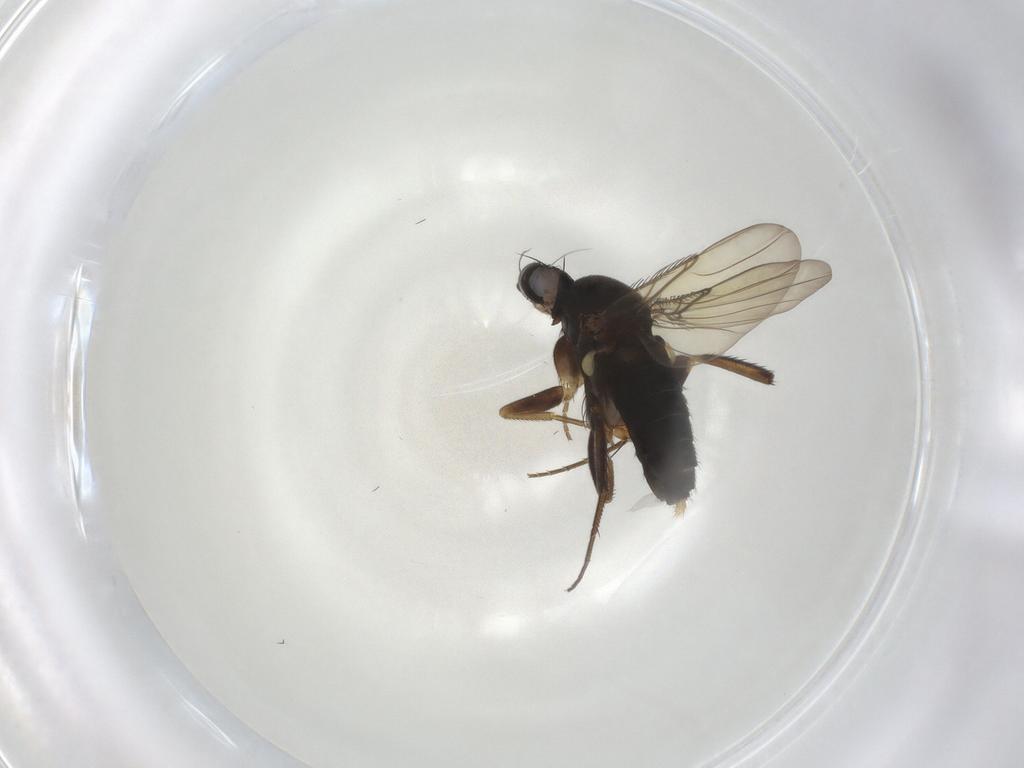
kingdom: Animalia
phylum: Arthropoda
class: Insecta
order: Diptera
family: Phoridae
